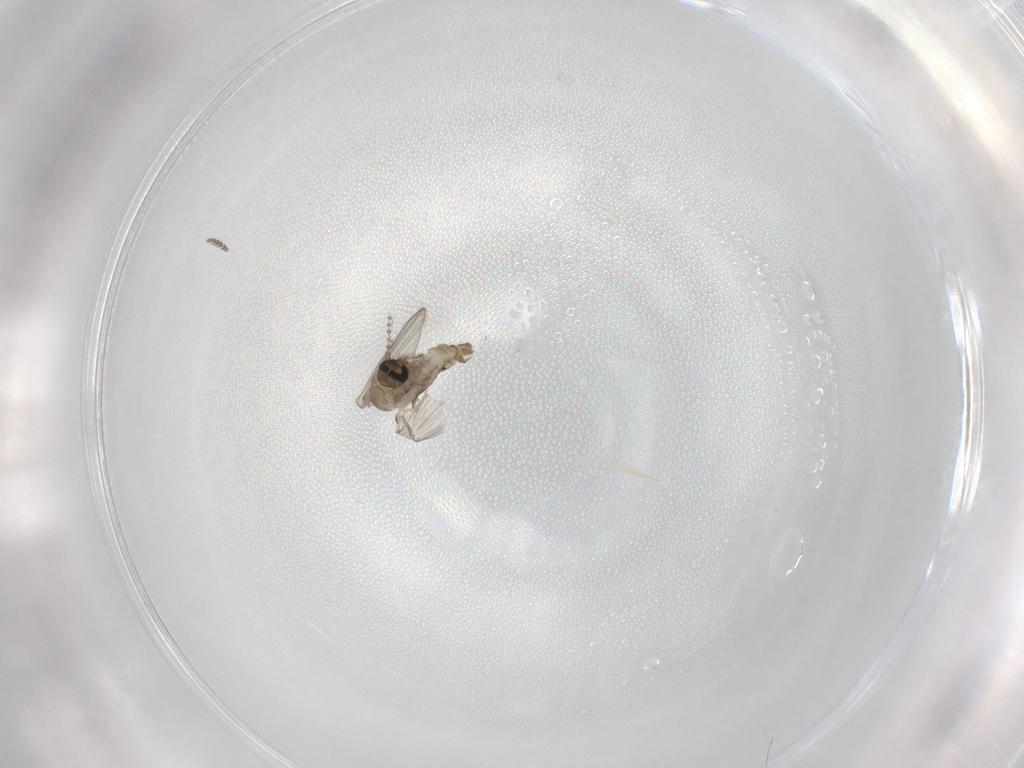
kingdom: Animalia
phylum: Arthropoda
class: Insecta
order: Diptera
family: Psychodidae
